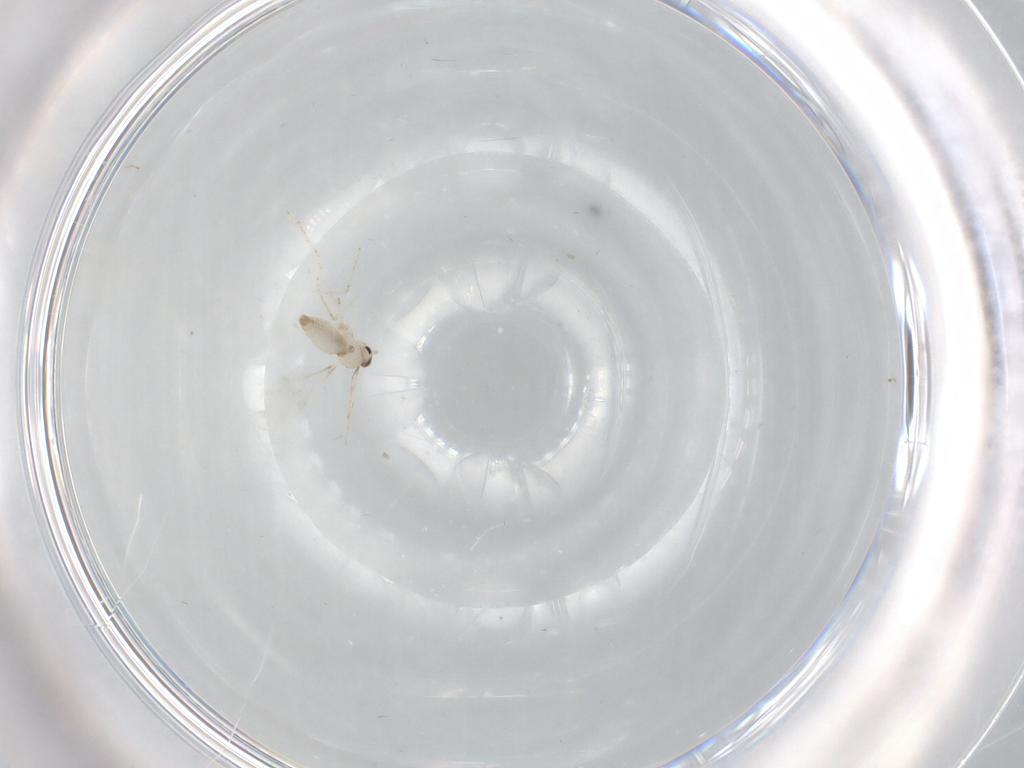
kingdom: Animalia
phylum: Arthropoda
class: Insecta
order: Diptera
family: Cecidomyiidae
